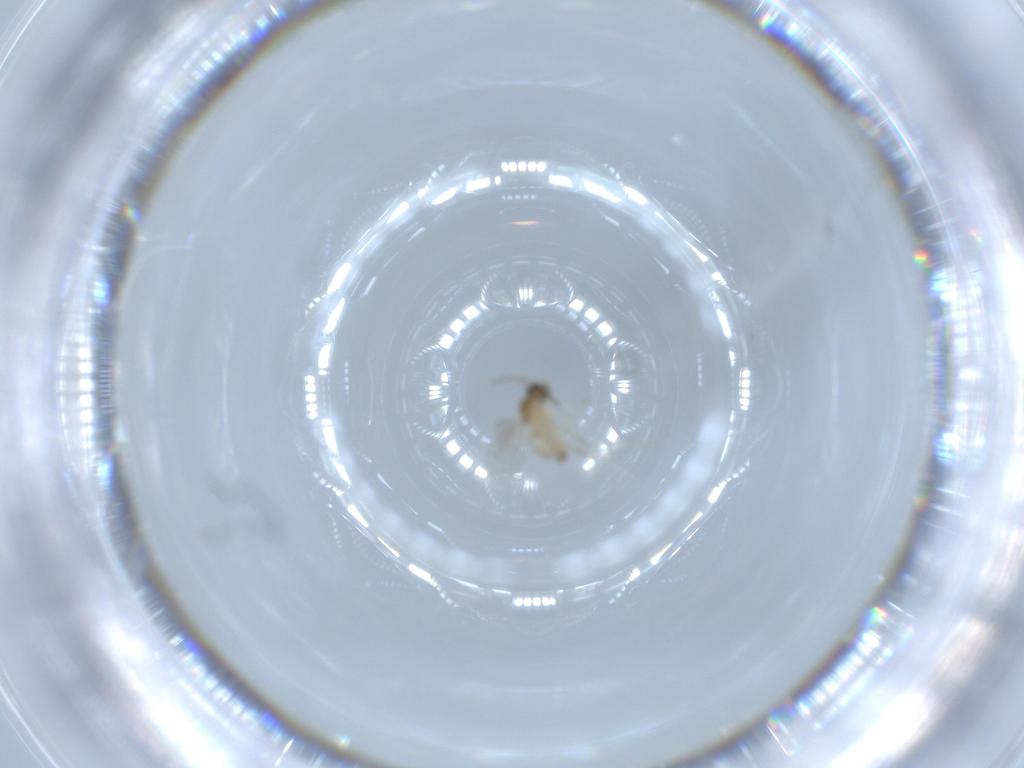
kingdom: Animalia
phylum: Arthropoda
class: Insecta
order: Diptera
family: Cecidomyiidae
